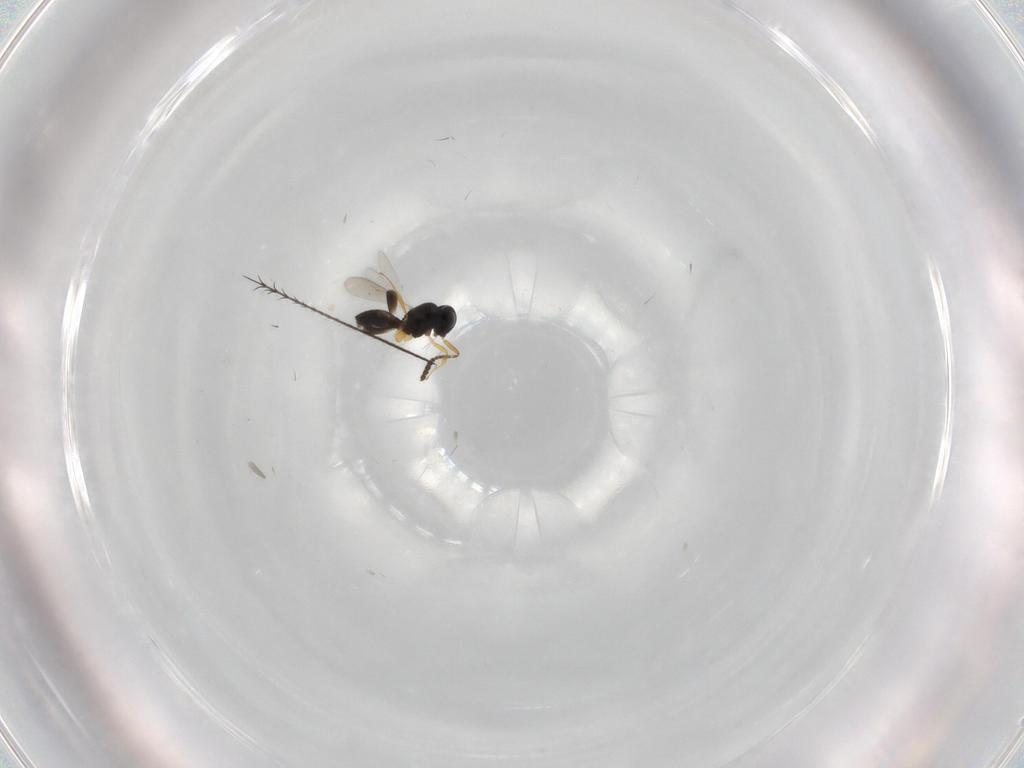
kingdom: Animalia
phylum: Arthropoda
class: Insecta
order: Hymenoptera
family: Scelionidae
